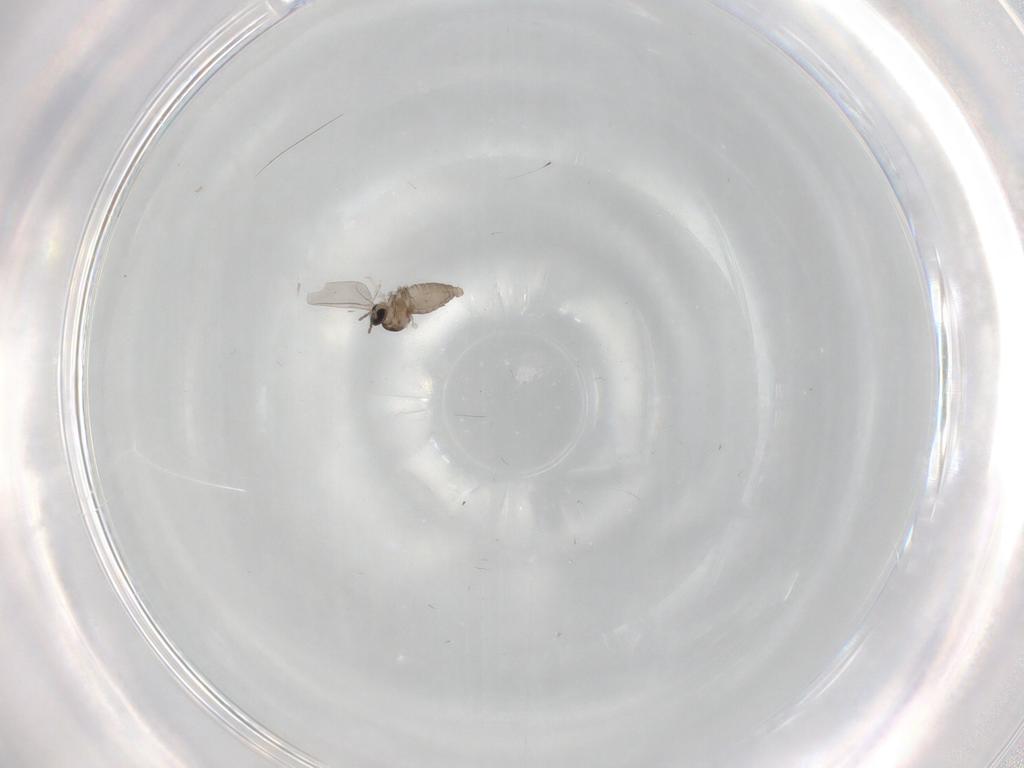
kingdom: Animalia
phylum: Arthropoda
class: Insecta
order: Diptera
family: Cecidomyiidae
